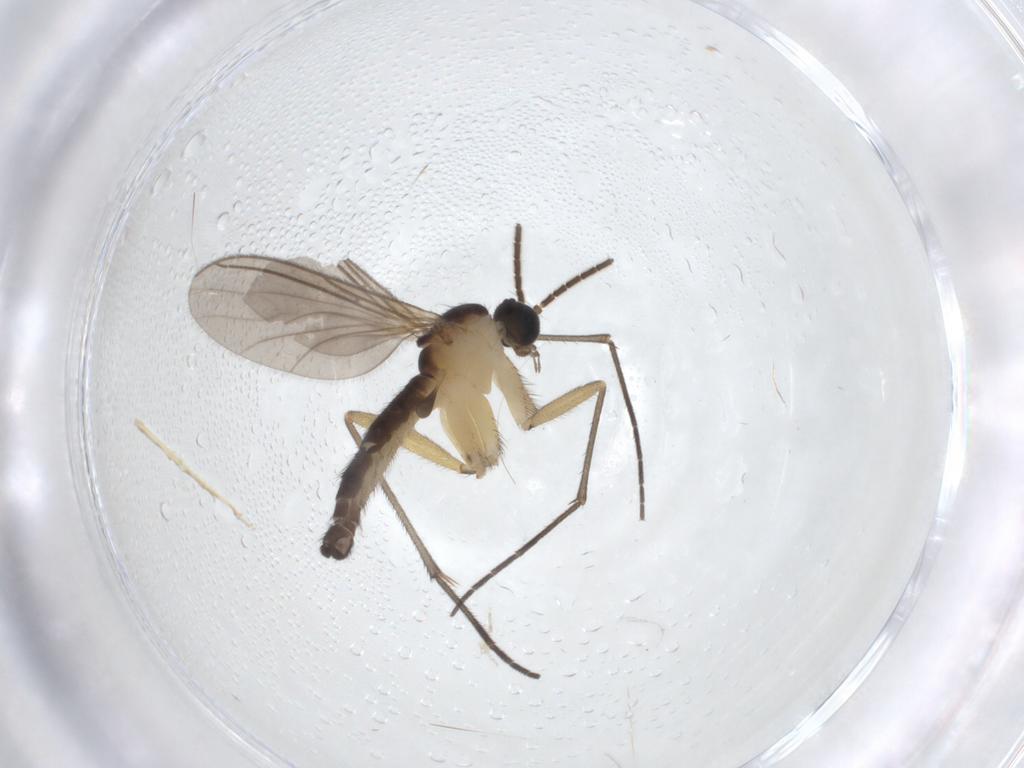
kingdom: Animalia
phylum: Arthropoda
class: Insecta
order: Diptera
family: Sciaridae
